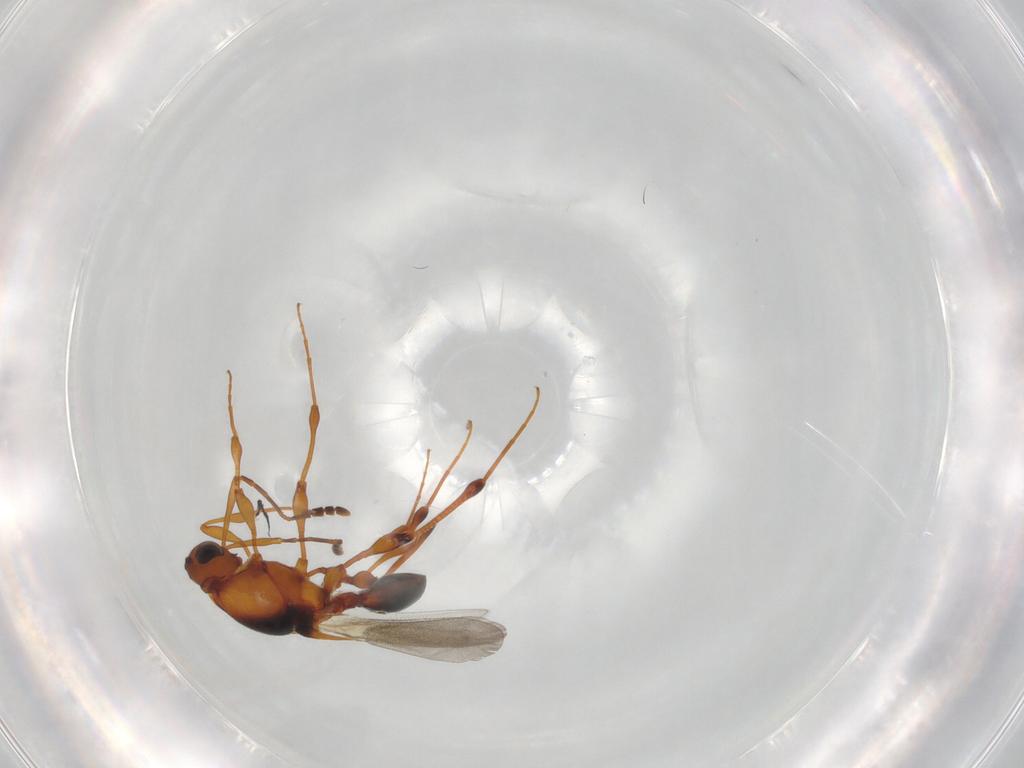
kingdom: Animalia
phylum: Arthropoda
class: Insecta
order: Hymenoptera
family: Platygastridae
